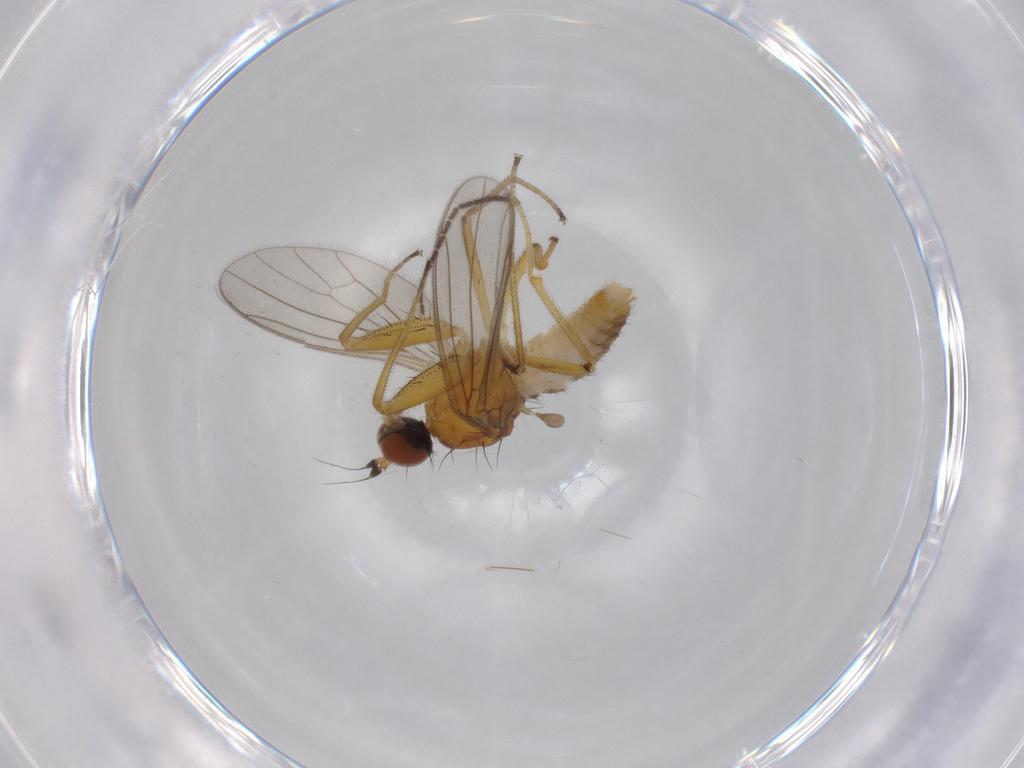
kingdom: Animalia
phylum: Arthropoda
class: Insecta
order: Diptera
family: Empididae
